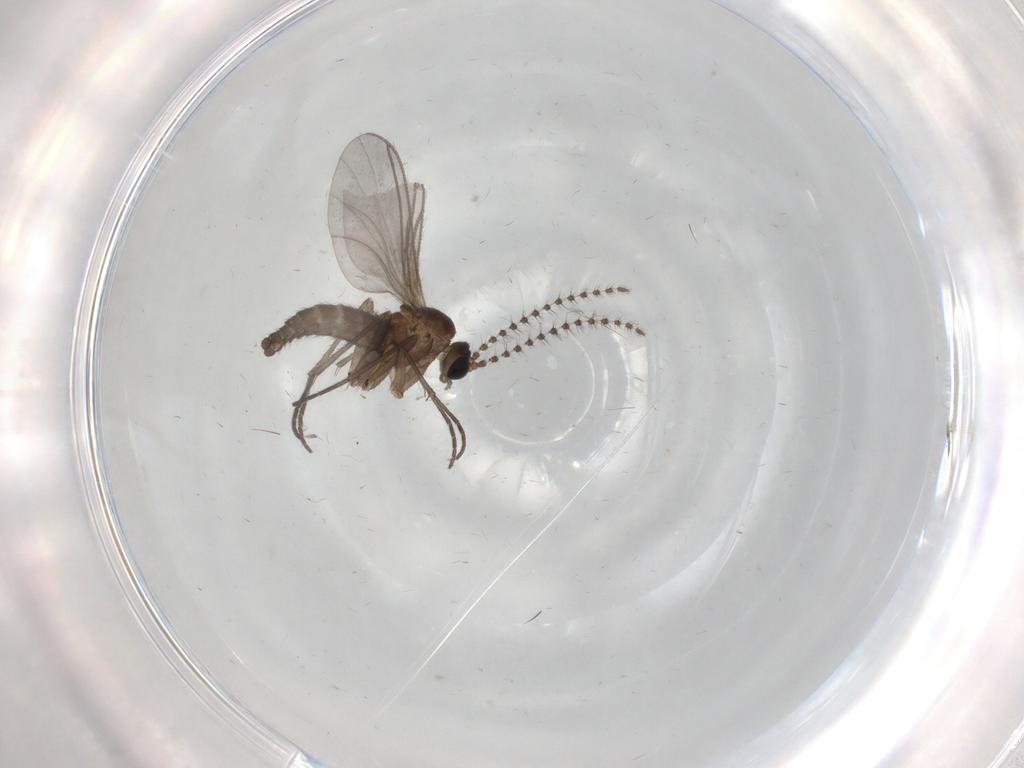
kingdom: Animalia
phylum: Arthropoda
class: Insecta
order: Diptera
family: Sciaridae
